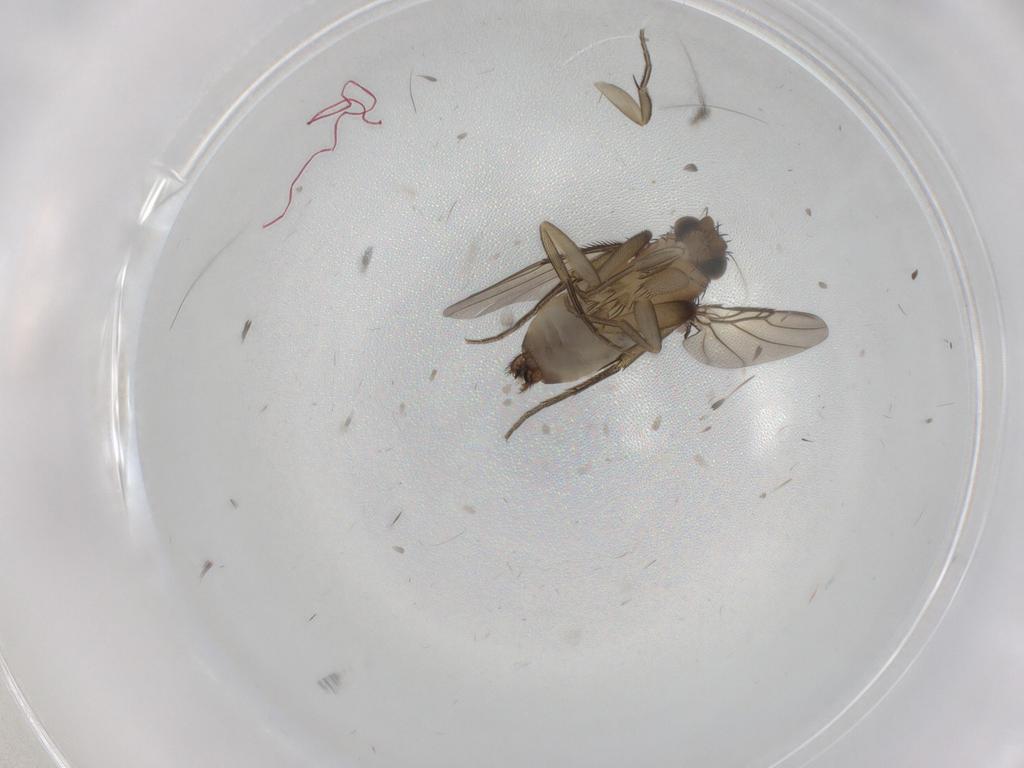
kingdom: Animalia
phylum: Arthropoda
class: Insecta
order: Diptera
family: Phoridae
